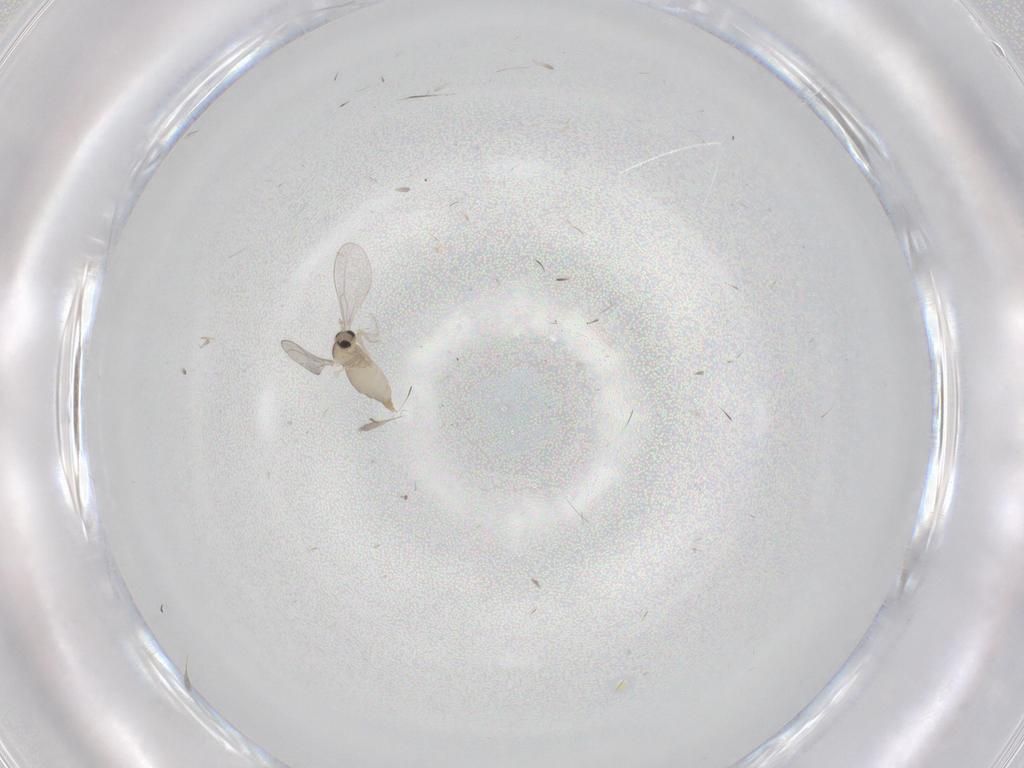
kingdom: Animalia
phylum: Arthropoda
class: Insecta
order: Diptera
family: Cecidomyiidae
